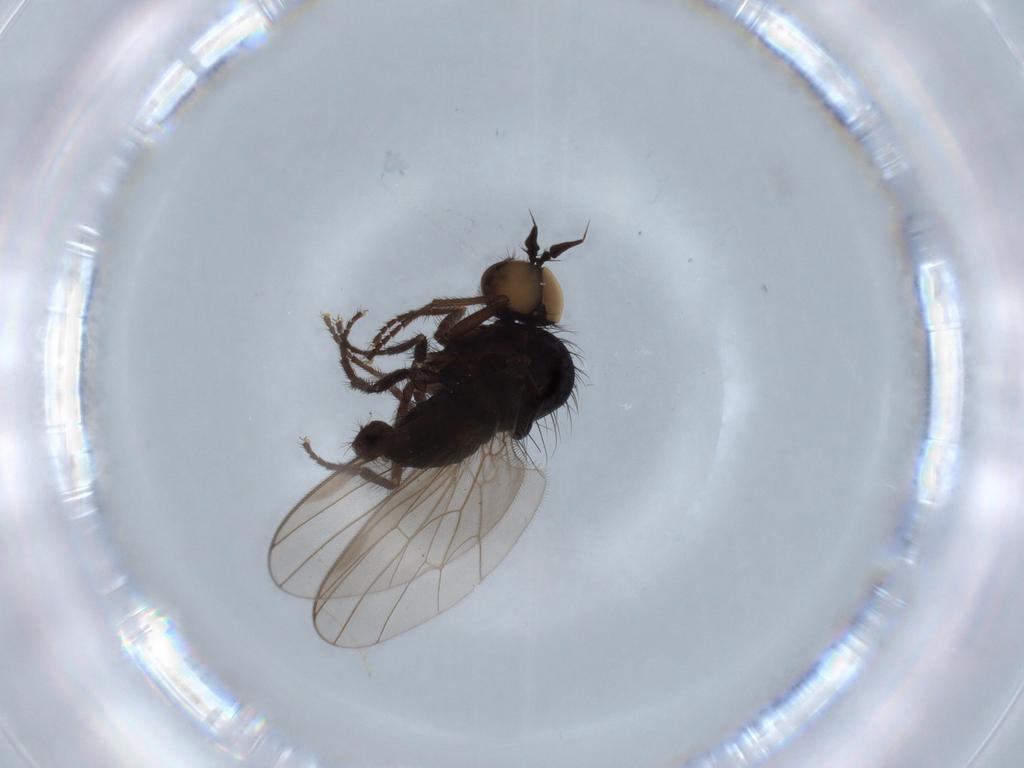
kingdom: Animalia
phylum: Arthropoda
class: Insecta
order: Diptera
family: Dolichopodidae
